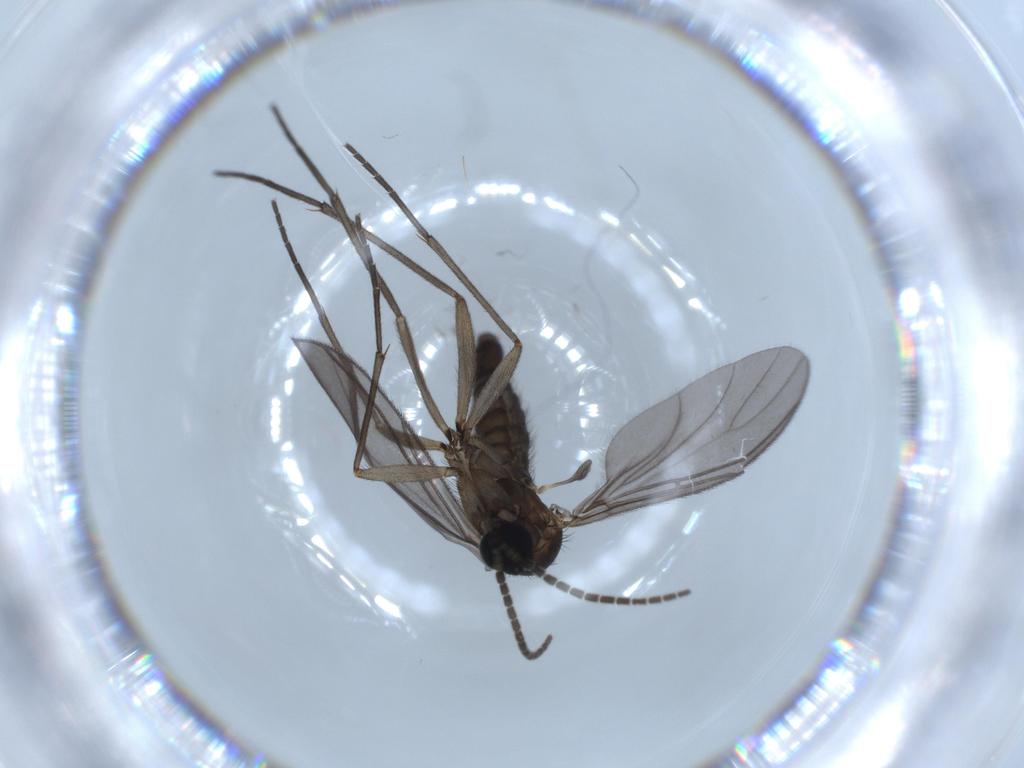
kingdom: Animalia
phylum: Arthropoda
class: Insecta
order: Diptera
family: Sciaridae
